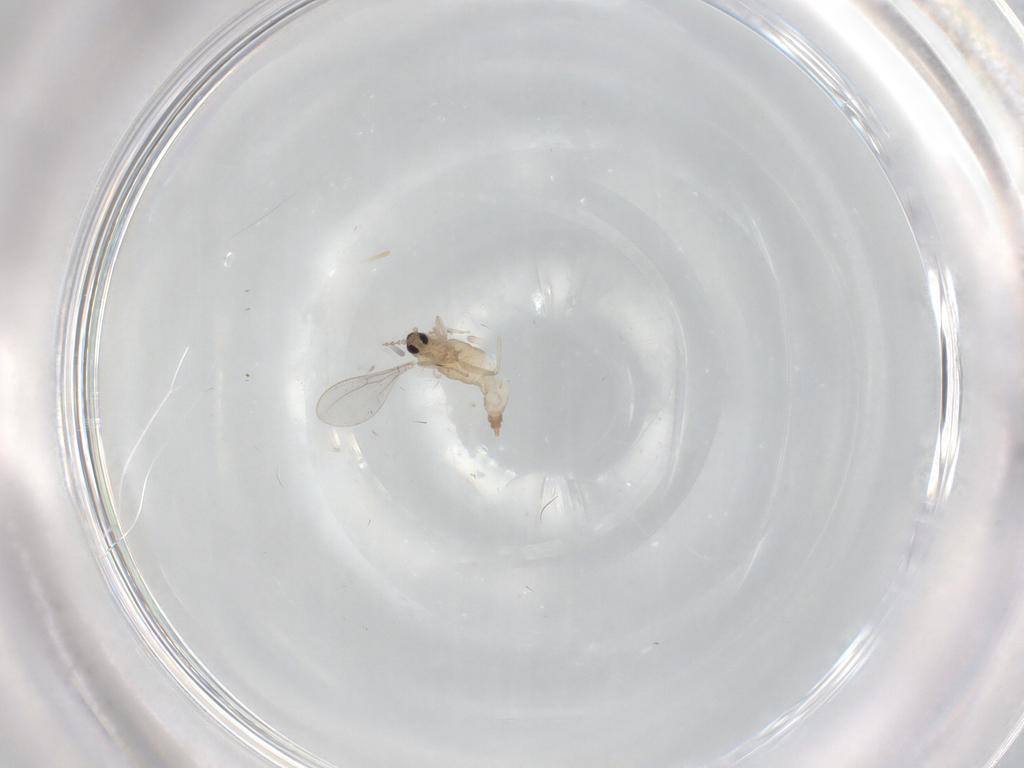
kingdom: Animalia
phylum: Arthropoda
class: Insecta
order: Diptera
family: Cecidomyiidae
